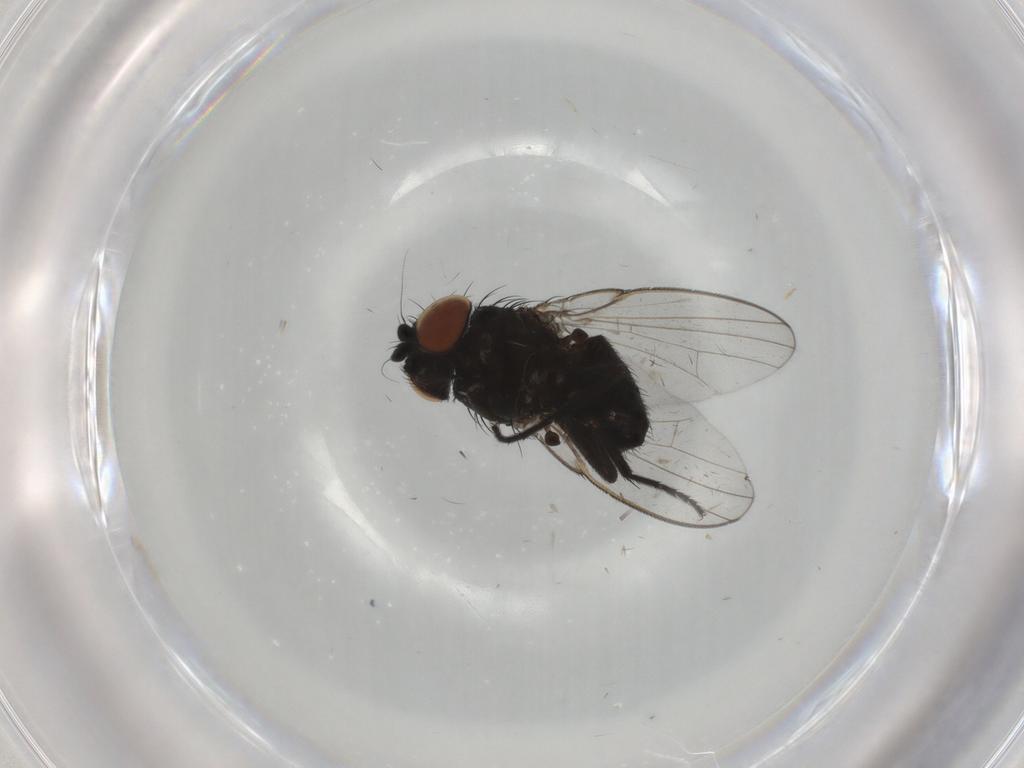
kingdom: Animalia
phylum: Arthropoda
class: Insecta
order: Diptera
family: Milichiidae
